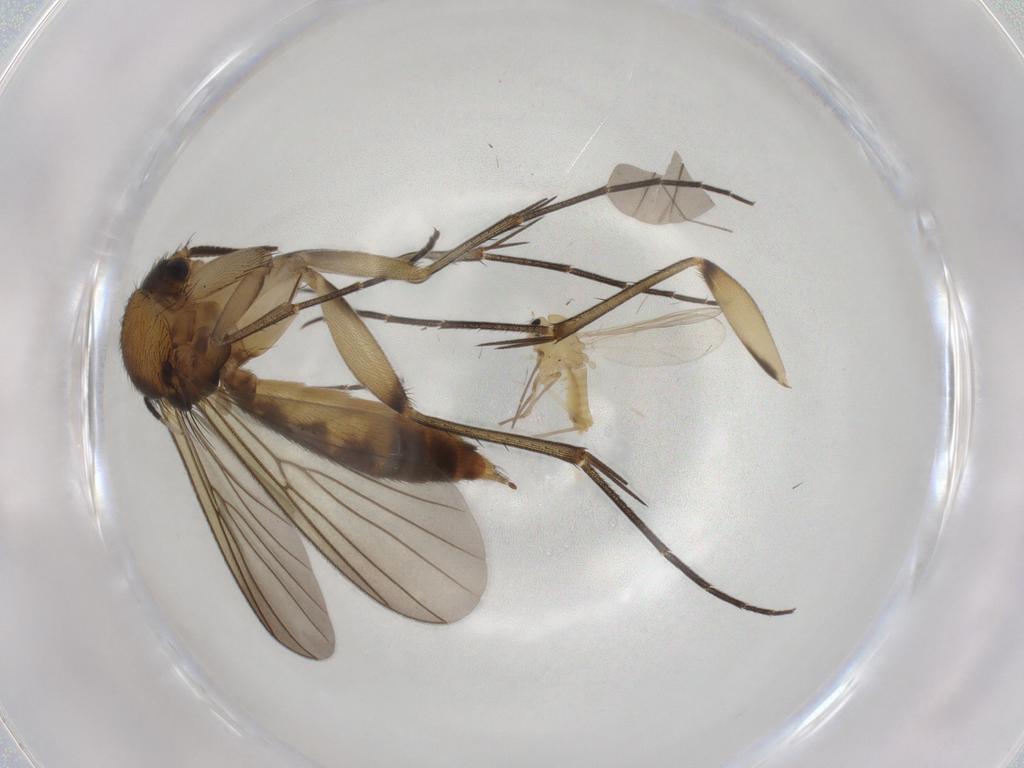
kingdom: Animalia
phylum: Arthropoda
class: Insecta
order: Diptera
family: Chironomidae
